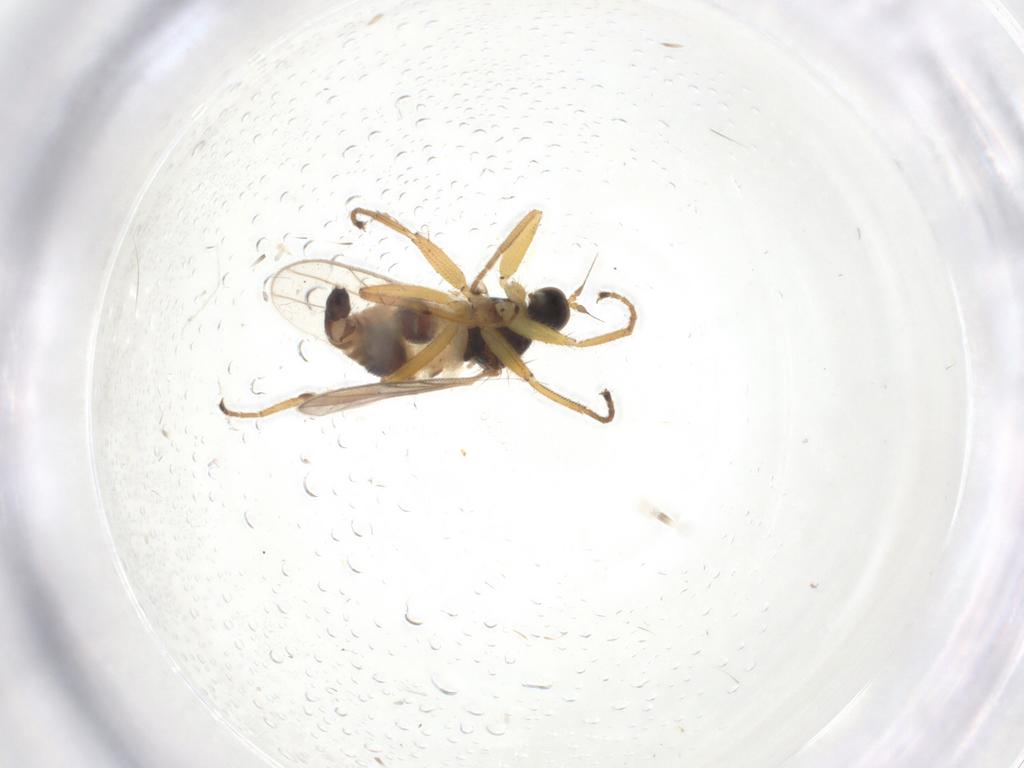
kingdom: Animalia
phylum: Arthropoda
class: Insecta
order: Diptera
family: Hybotidae
